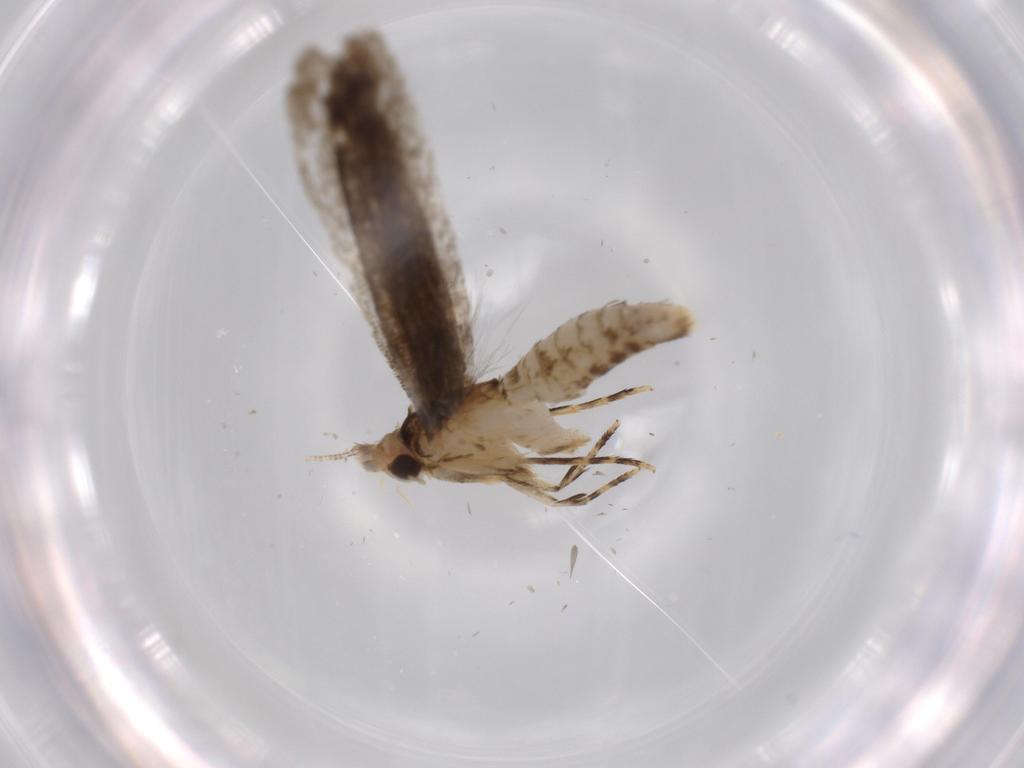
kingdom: Animalia
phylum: Arthropoda
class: Insecta
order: Lepidoptera
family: Meessiidae
